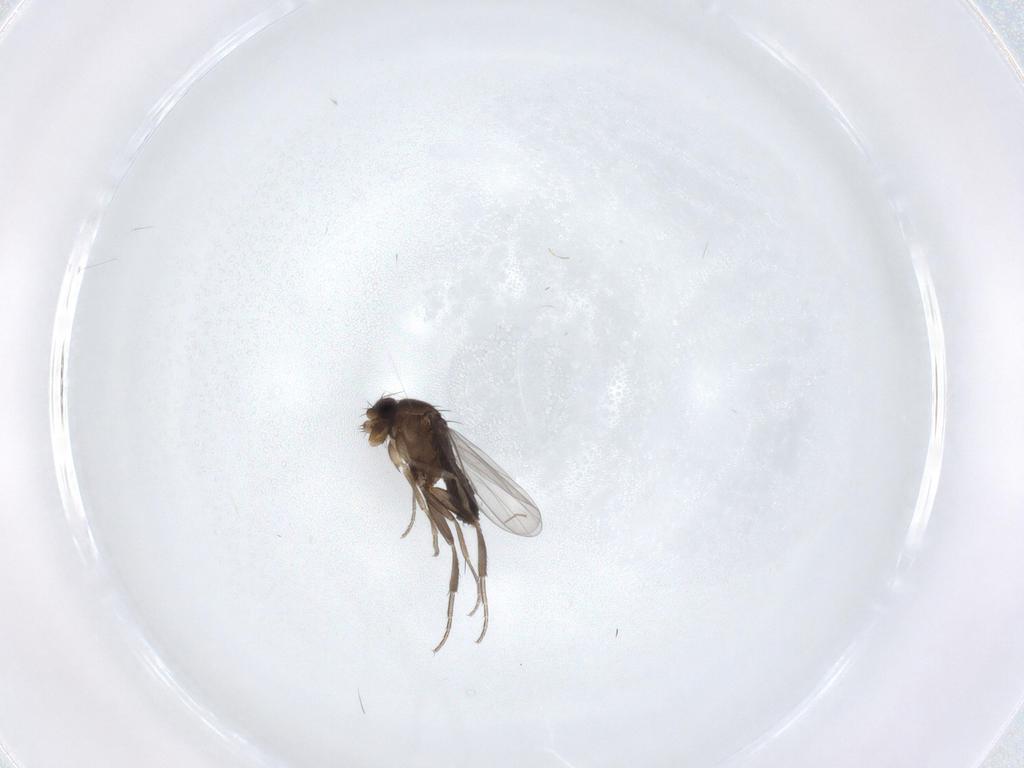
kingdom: Animalia
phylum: Arthropoda
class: Insecta
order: Diptera
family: Phoridae
